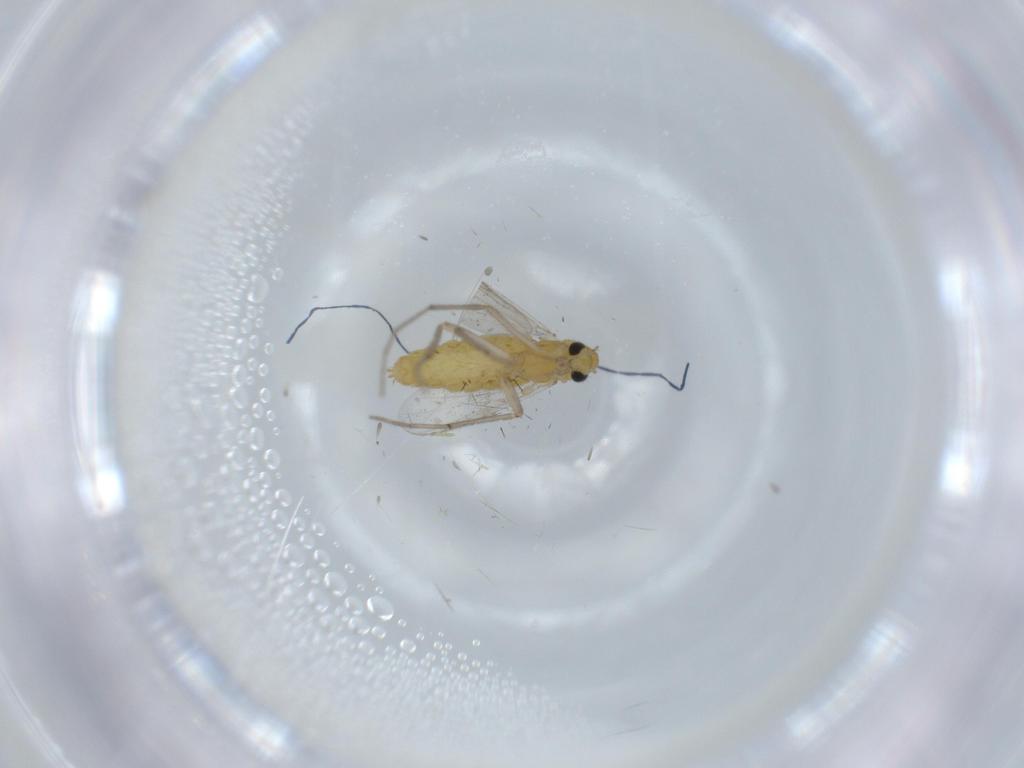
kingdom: Animalia
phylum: Arthropoda
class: Insecta
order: Diptera
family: Chironomidae
